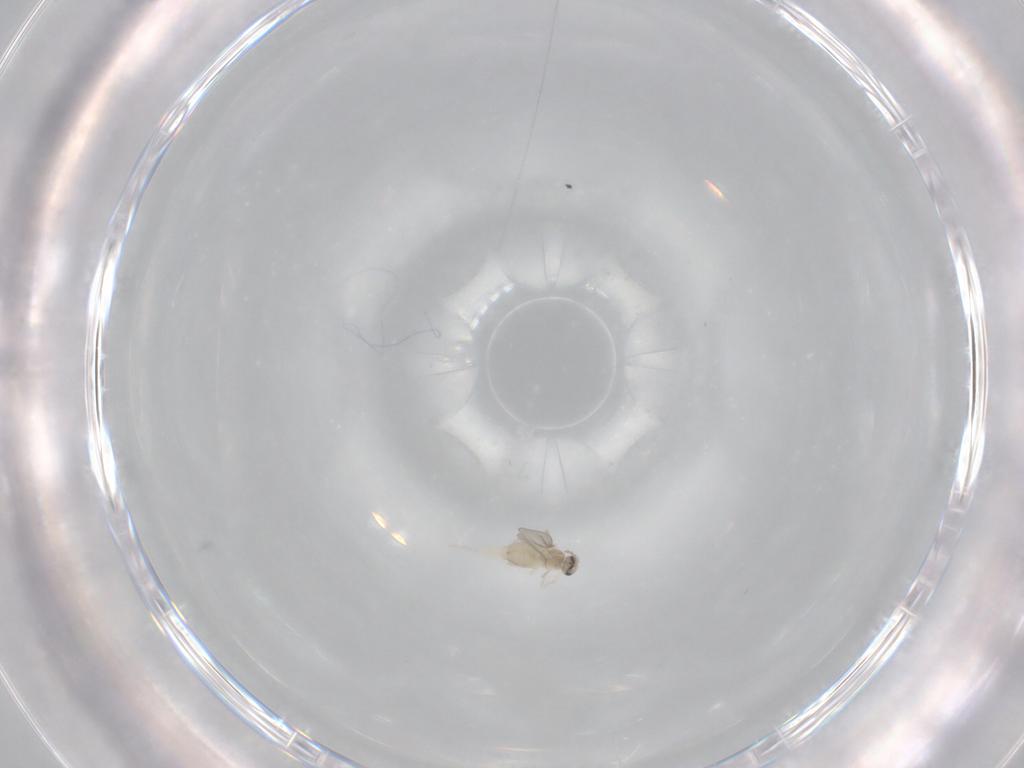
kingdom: Animalia
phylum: Arthropoda
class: Insecta
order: Diptera
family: Cecidomyiidae
